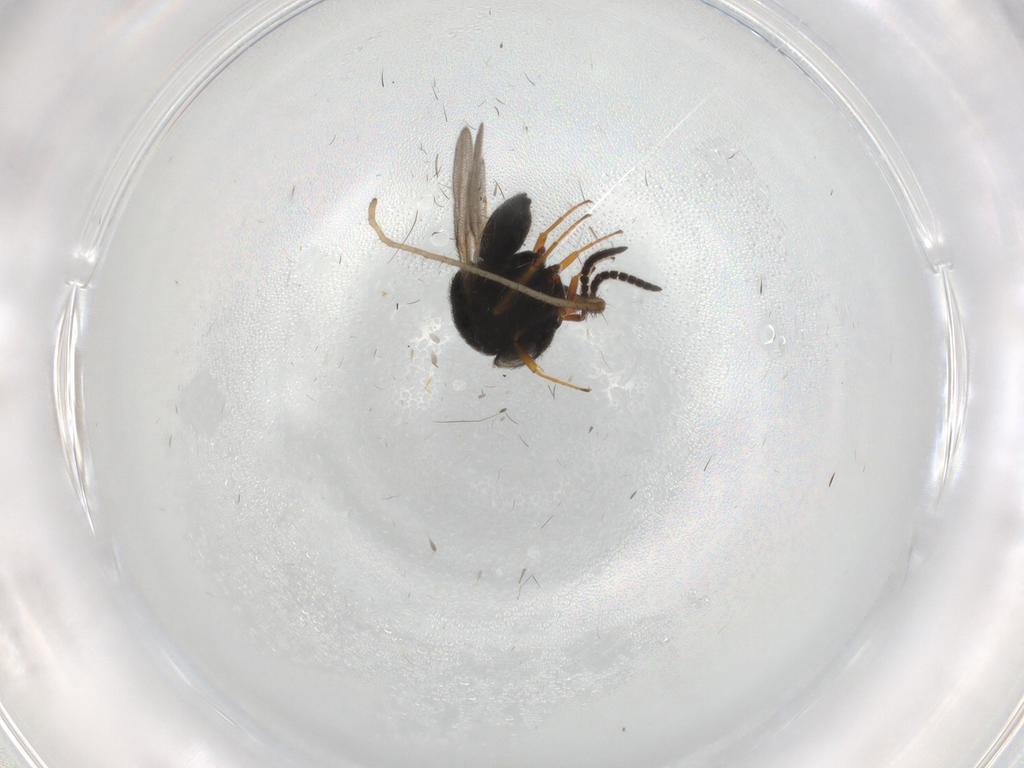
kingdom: Animalia
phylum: Arthropoda
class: Insecta
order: Hymenoptera
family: Scelionidae
